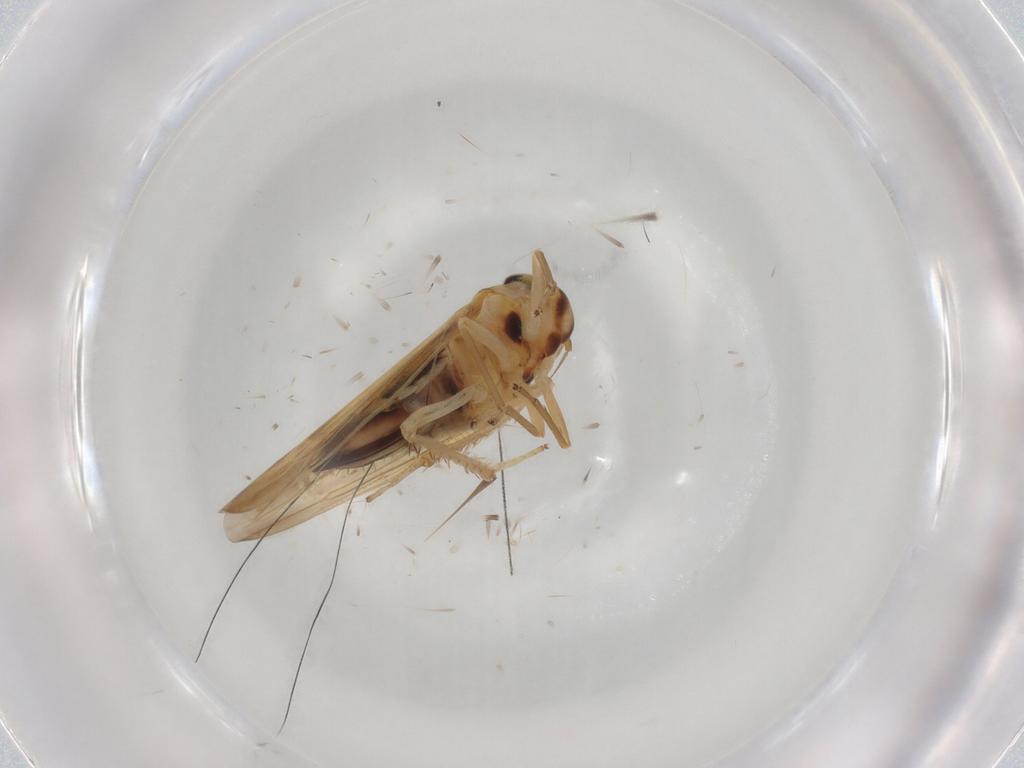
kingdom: Animalia
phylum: Arthropoda
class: Insecta
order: Hemiptera
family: Cicadellidae
